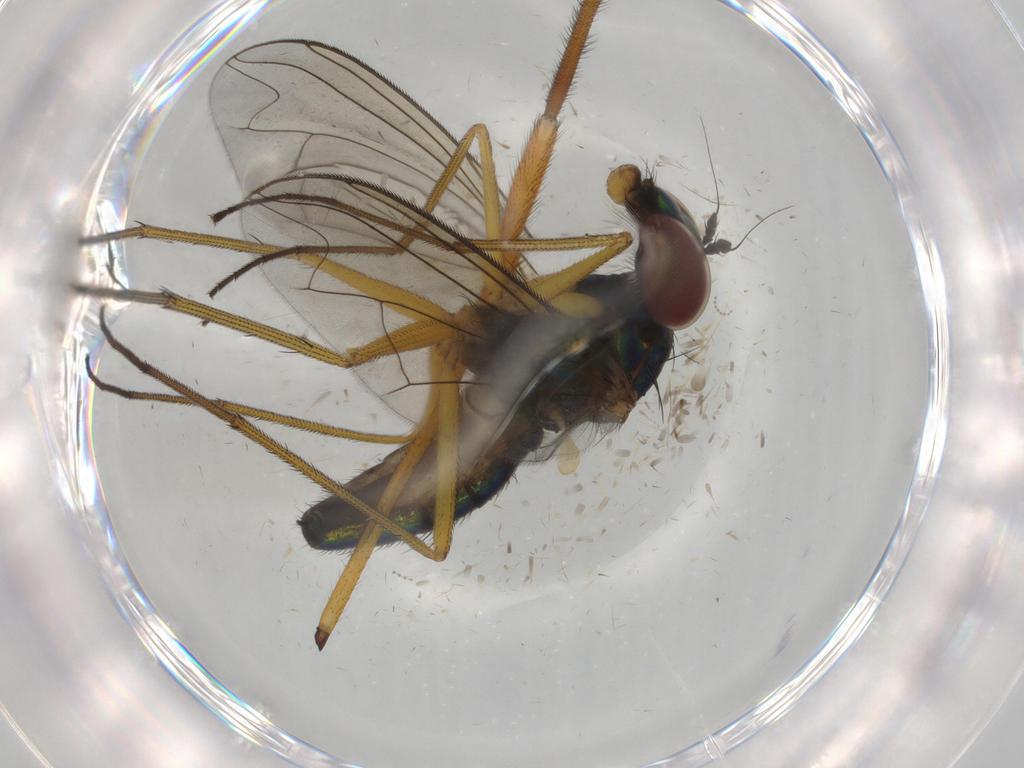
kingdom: Animalia
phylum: Arthropoda
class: Insecta
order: Diptera
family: Dolichopodidae
